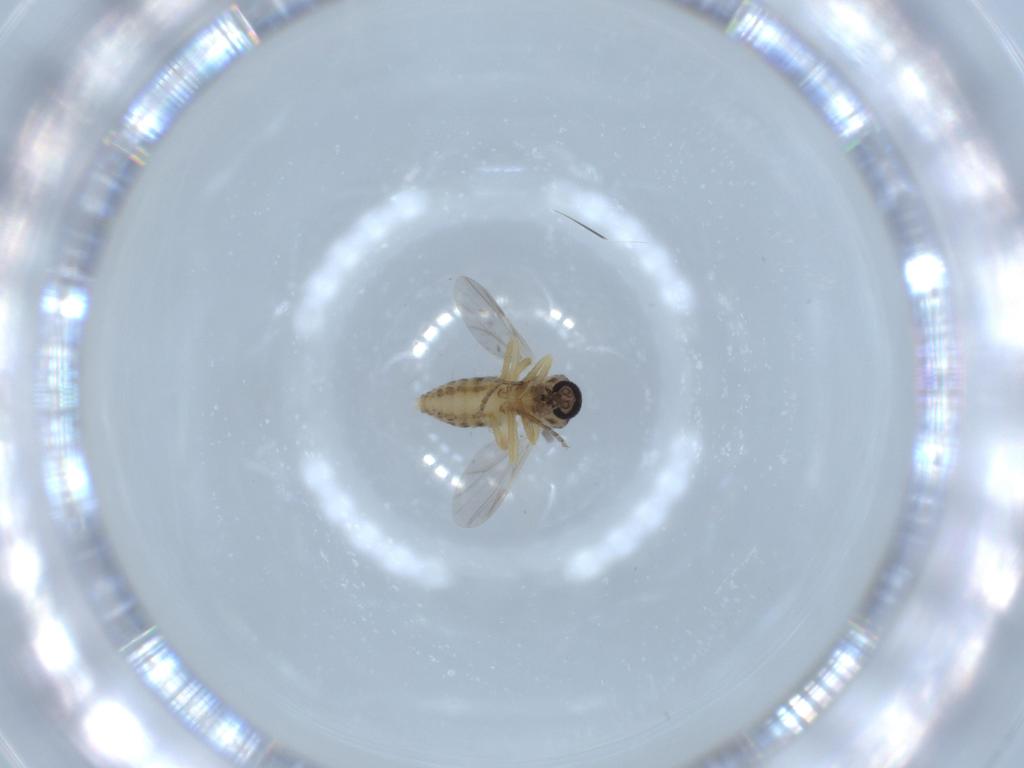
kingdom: Animalia
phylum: Arthropoda
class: Insecta
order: Diptera
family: Ceratopogonidae
